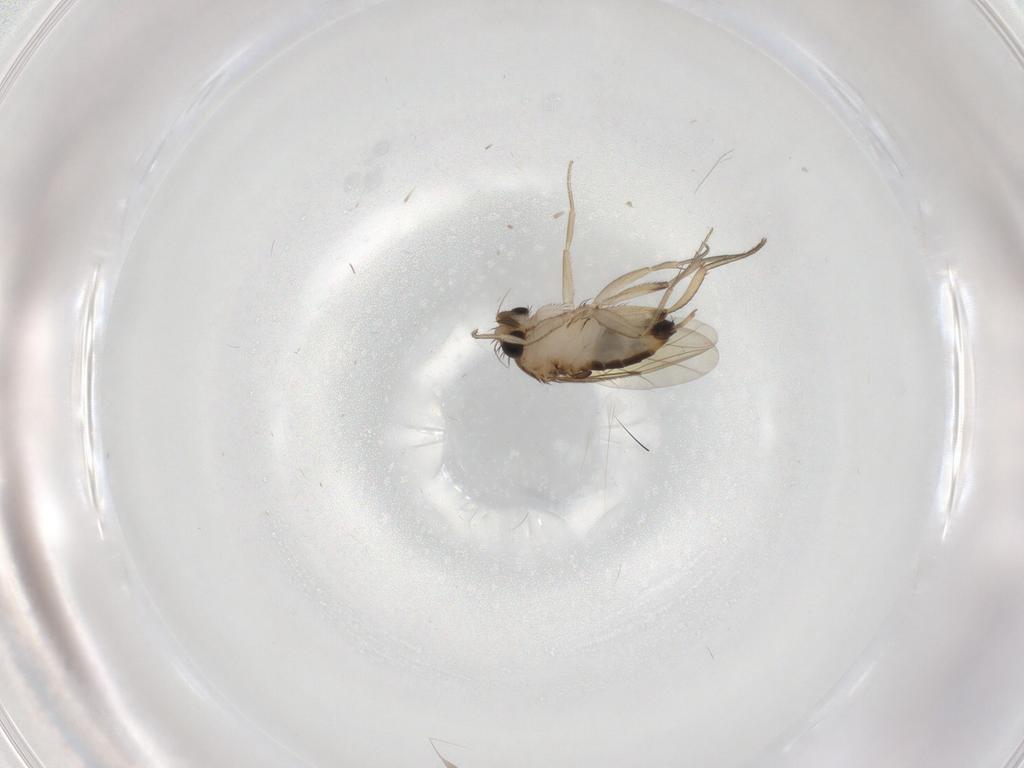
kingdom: Animalia
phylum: Arthropoda
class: Insecta
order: Diptera
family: Phoridae
